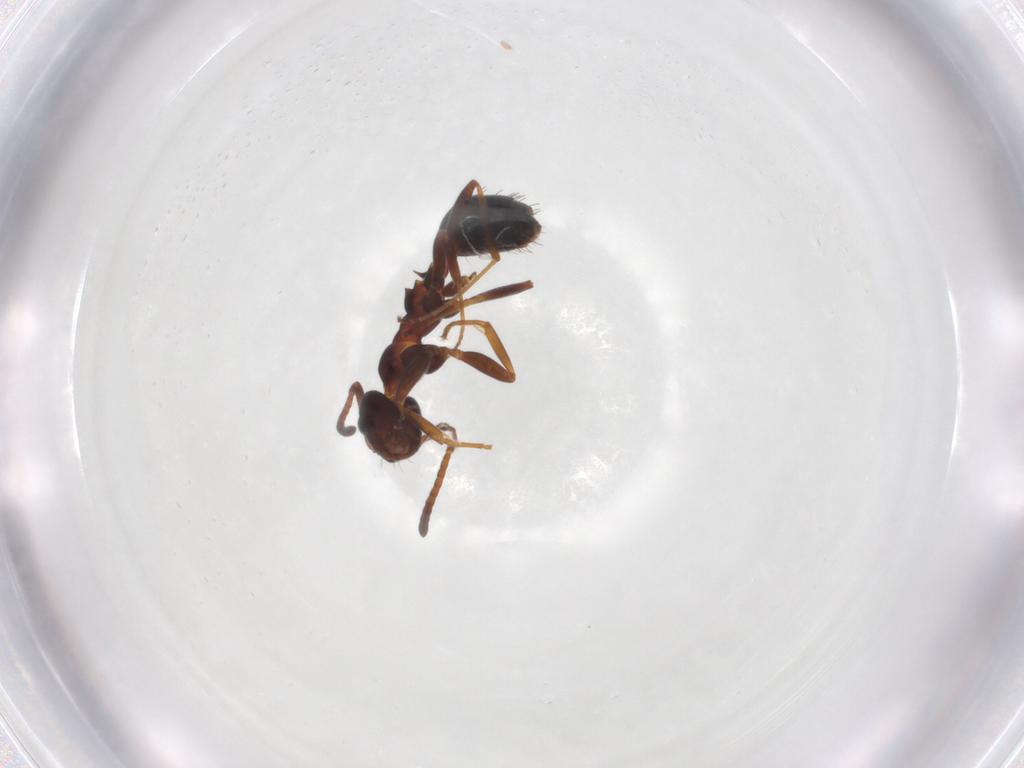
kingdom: Animalia
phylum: Arthropoda
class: Insecta
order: Hymenoptera
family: Formicidae
